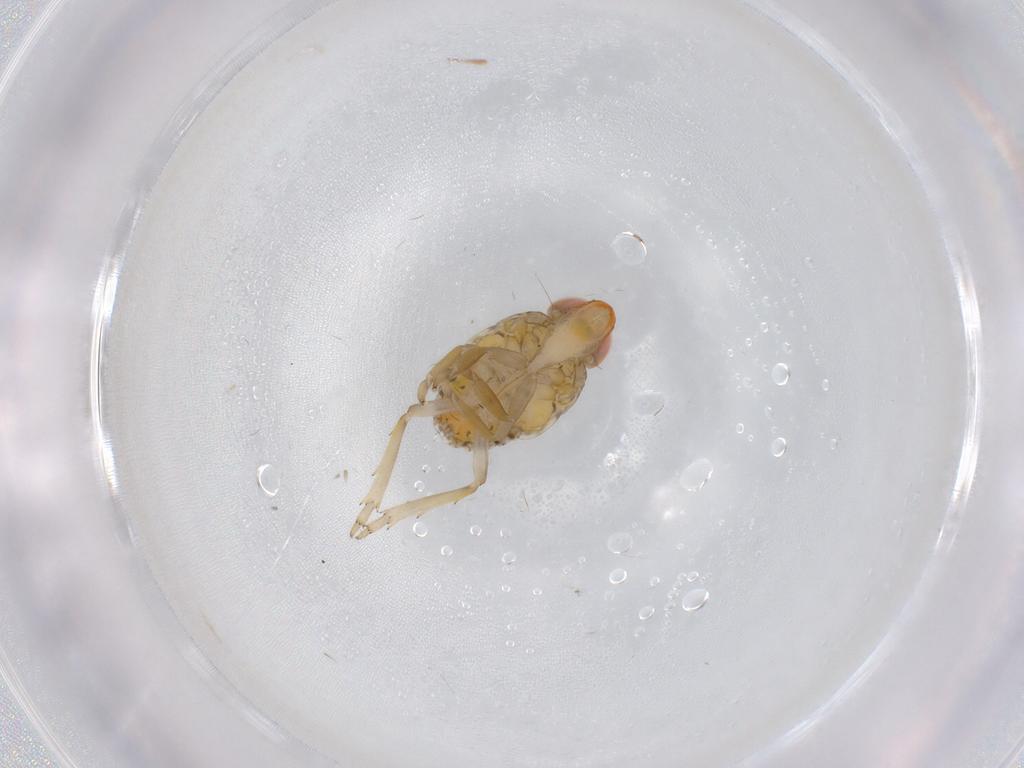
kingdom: Animalia
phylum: Arthropoda
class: Insecta
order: Hemiptera
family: Fulgoroidea_incertae_sedis
